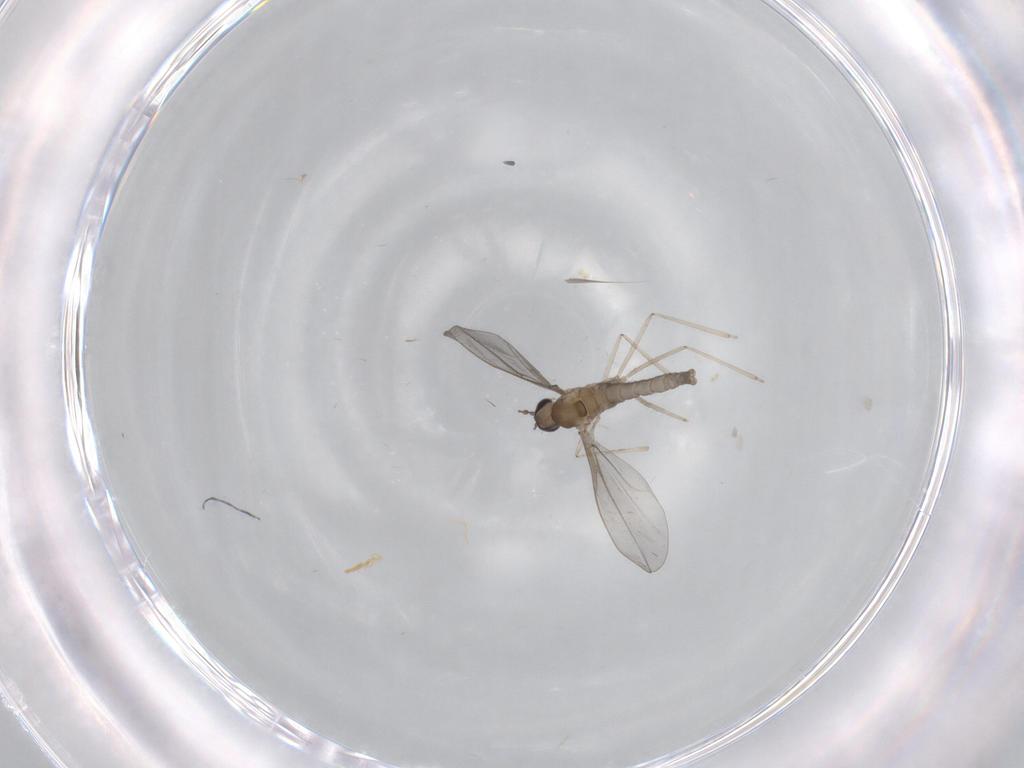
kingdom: Animalia
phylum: Arthropoda
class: Insecta
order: Diptera
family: Cecidomyiidae
